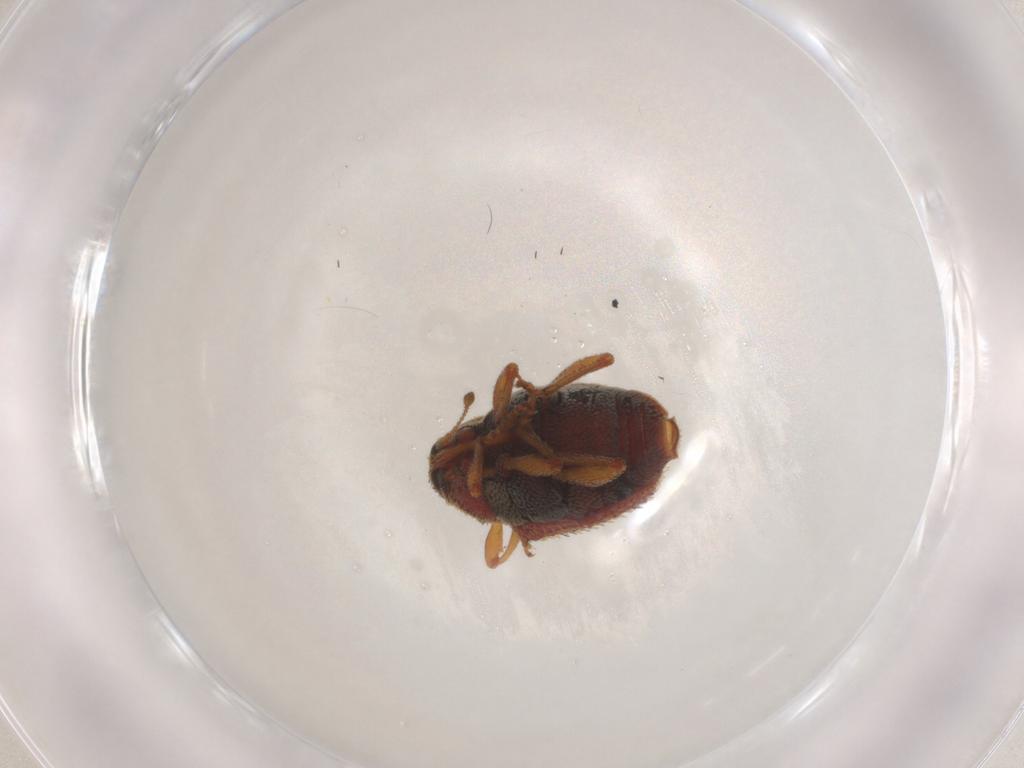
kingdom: Animalia
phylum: Arthropoda
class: Insecta
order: Coleoptera
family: Curculionidae
